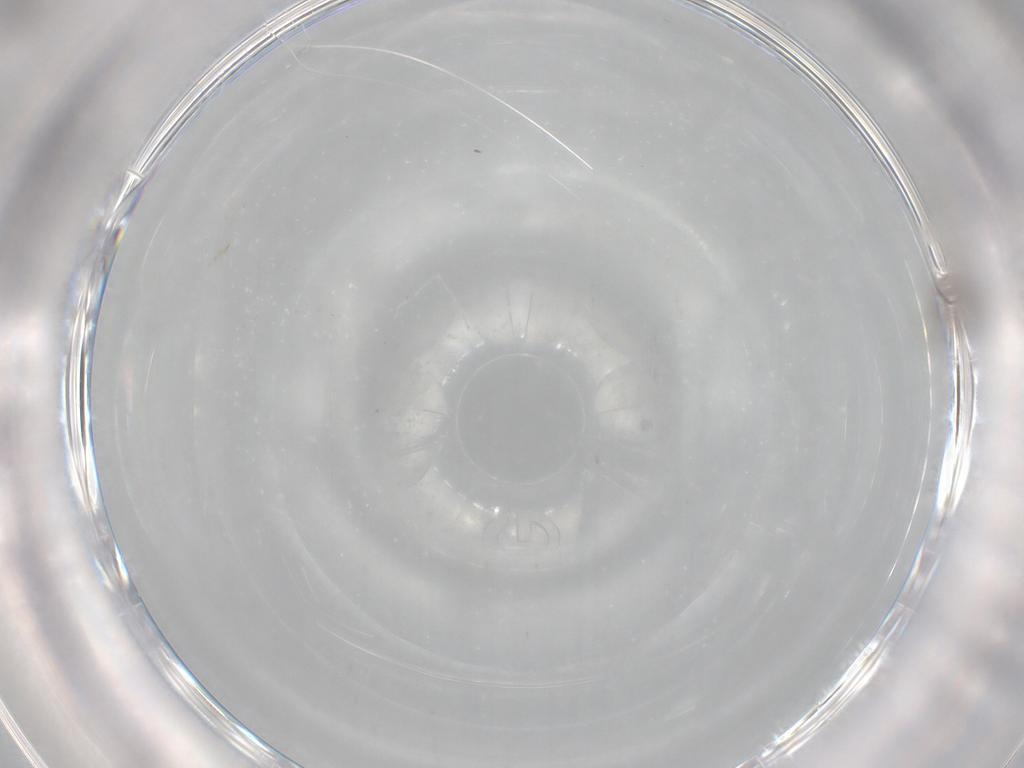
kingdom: Animalia
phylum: Arthropoda
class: Insecta
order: Diptera
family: Cecidomyiidae
